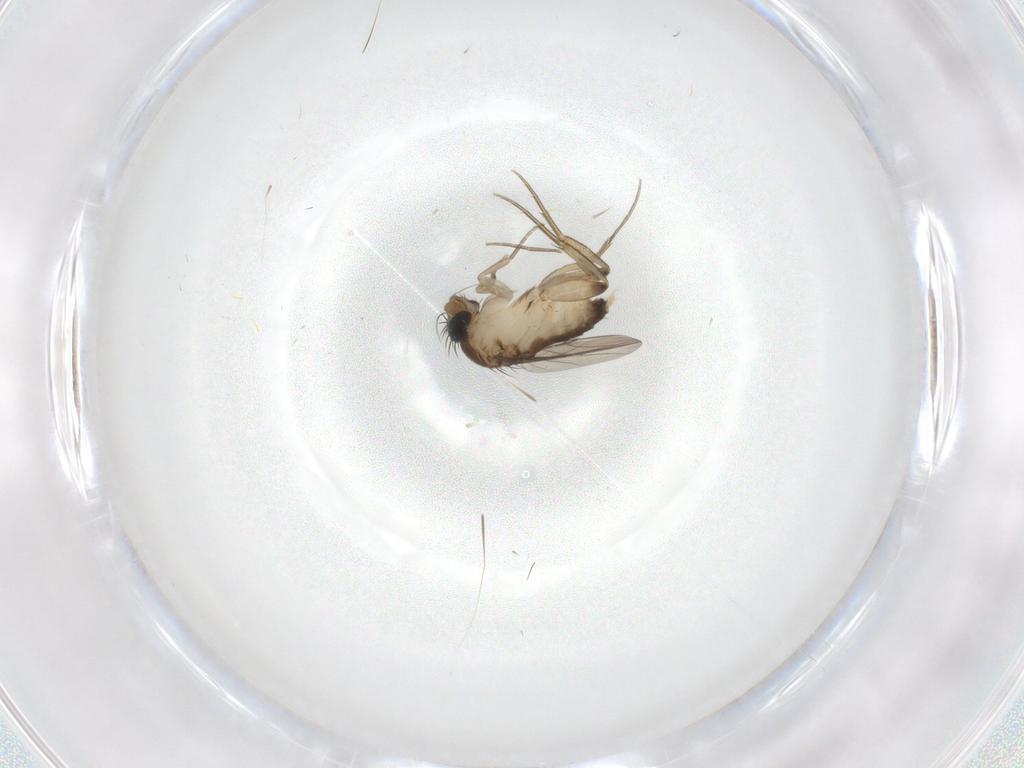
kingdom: Animalia
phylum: Arthropoda
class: Insecta
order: Diptera
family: Phoridae
